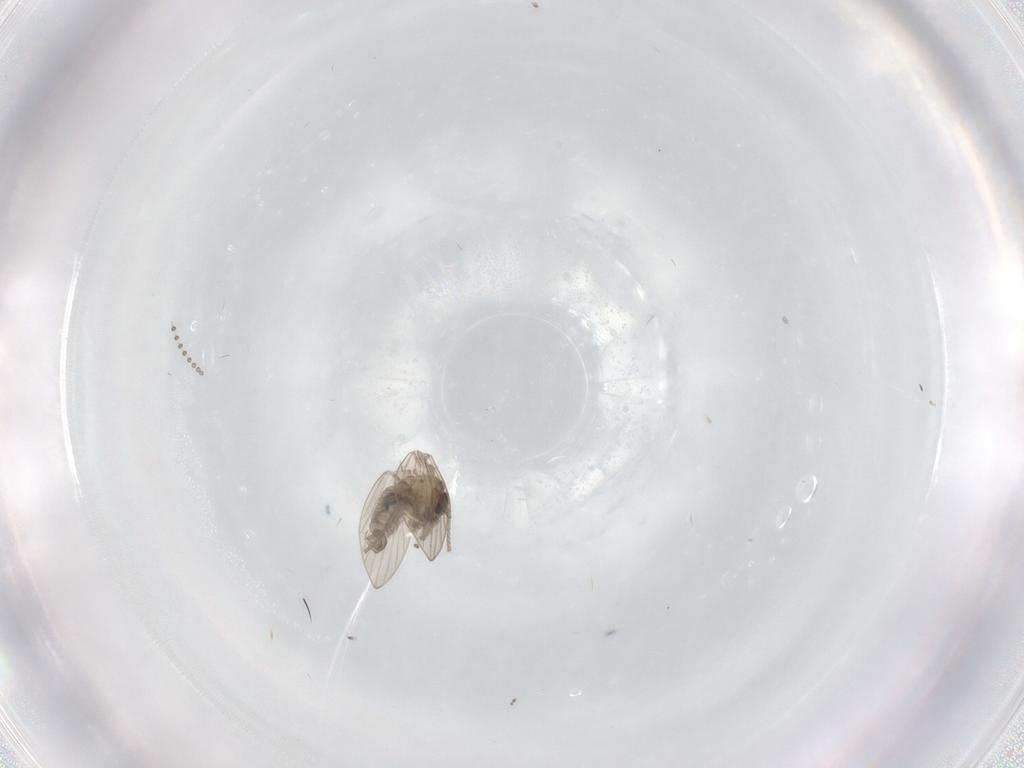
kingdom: Animalia
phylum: Arthropoda
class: Insecta
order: Diptera
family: Psychodidae
